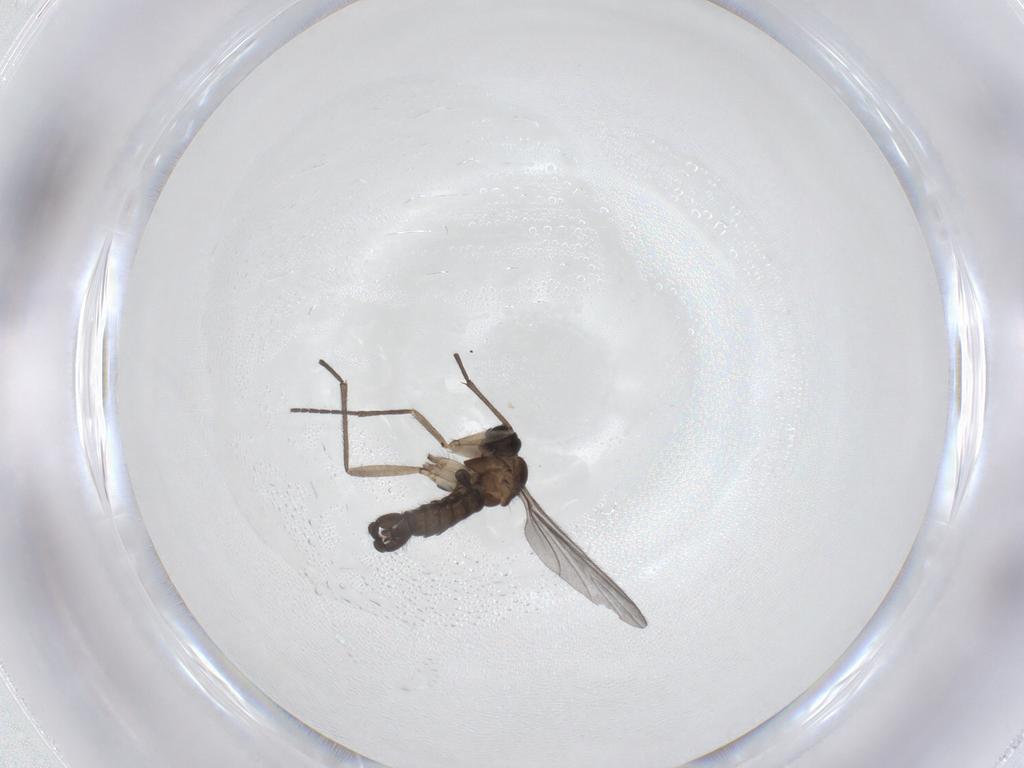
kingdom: Animalia
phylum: Arthropoda
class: Insecta
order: Diptera
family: Sciaridae
